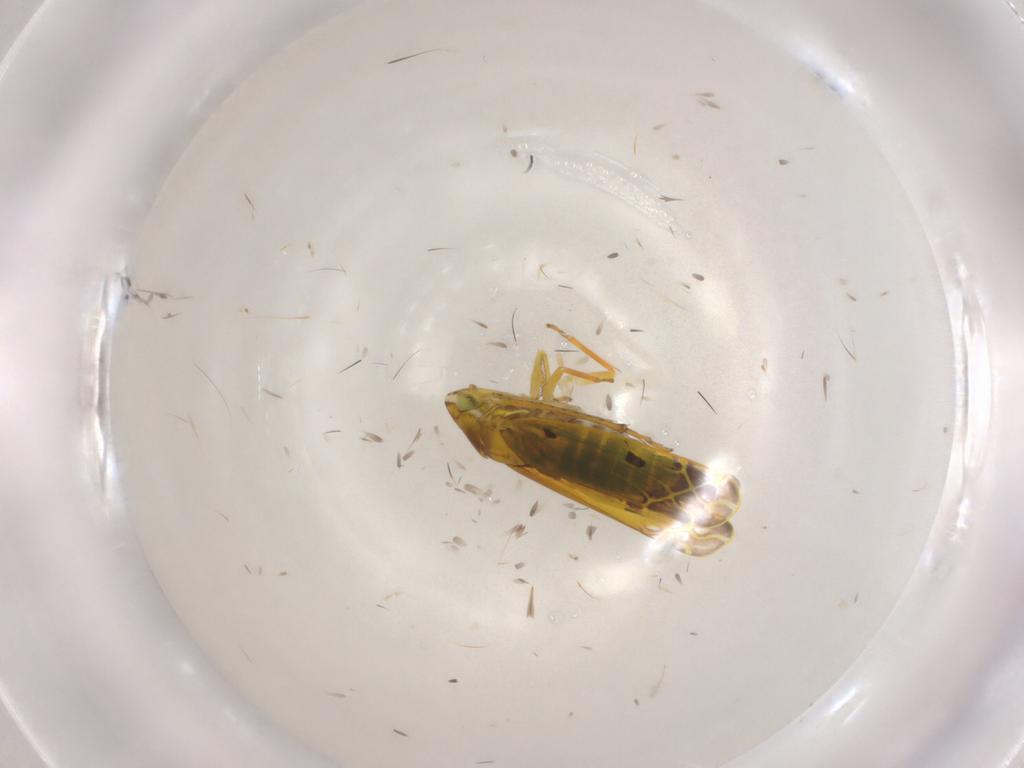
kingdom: Animalia
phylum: Arthropoda
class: Insecta
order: Hemiptera
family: Cicadellidae
